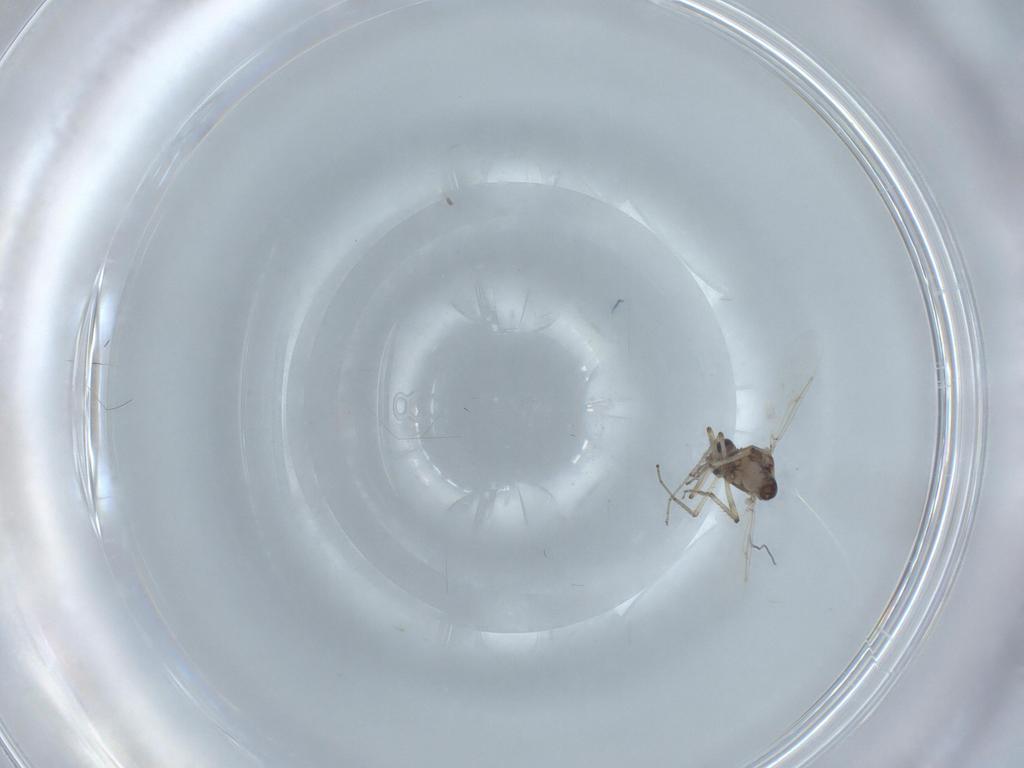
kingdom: Animalia
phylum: Arthropoda
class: Insecta
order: Diptera
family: Ceratopogonidae
